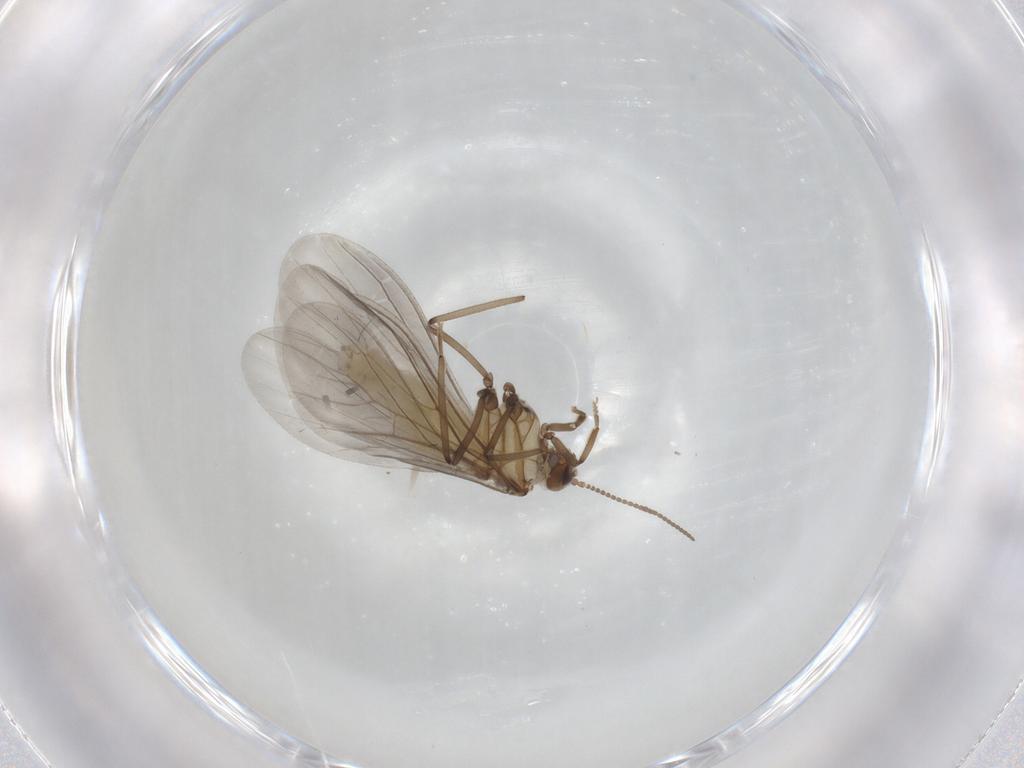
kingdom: Animalia
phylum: Arthropoda
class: Insecta
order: Neuroptera
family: Coniopterygidae
